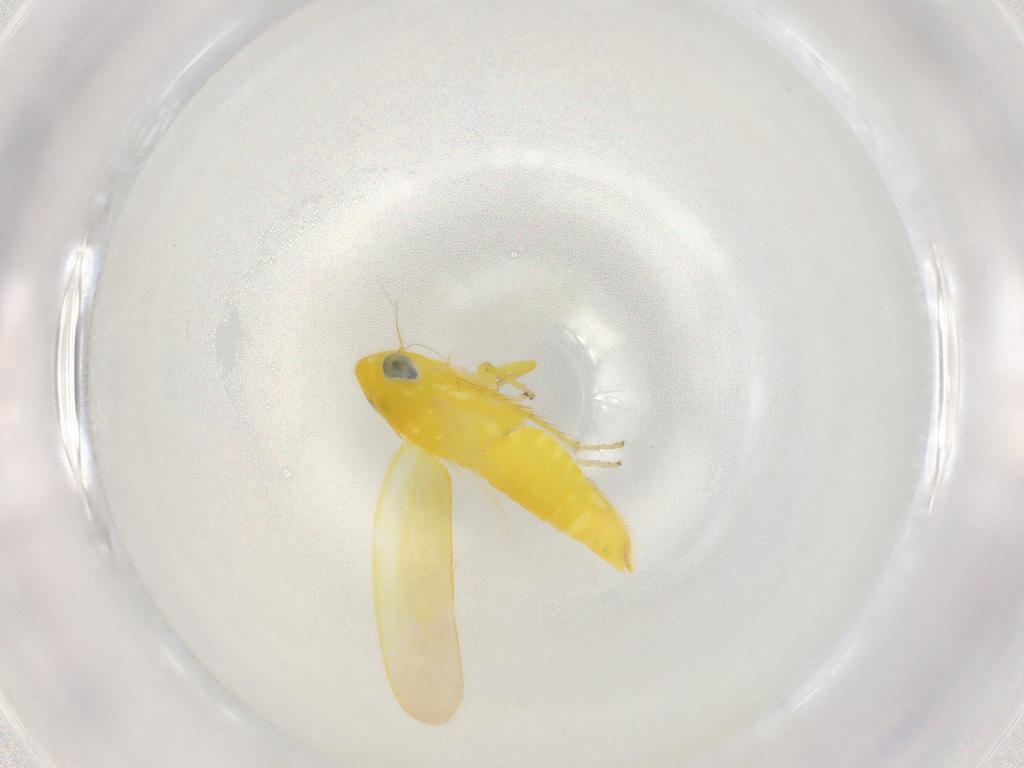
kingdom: Animalia
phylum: Arthropoda
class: Insecta
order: Hemiptera
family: Cicadellidae
